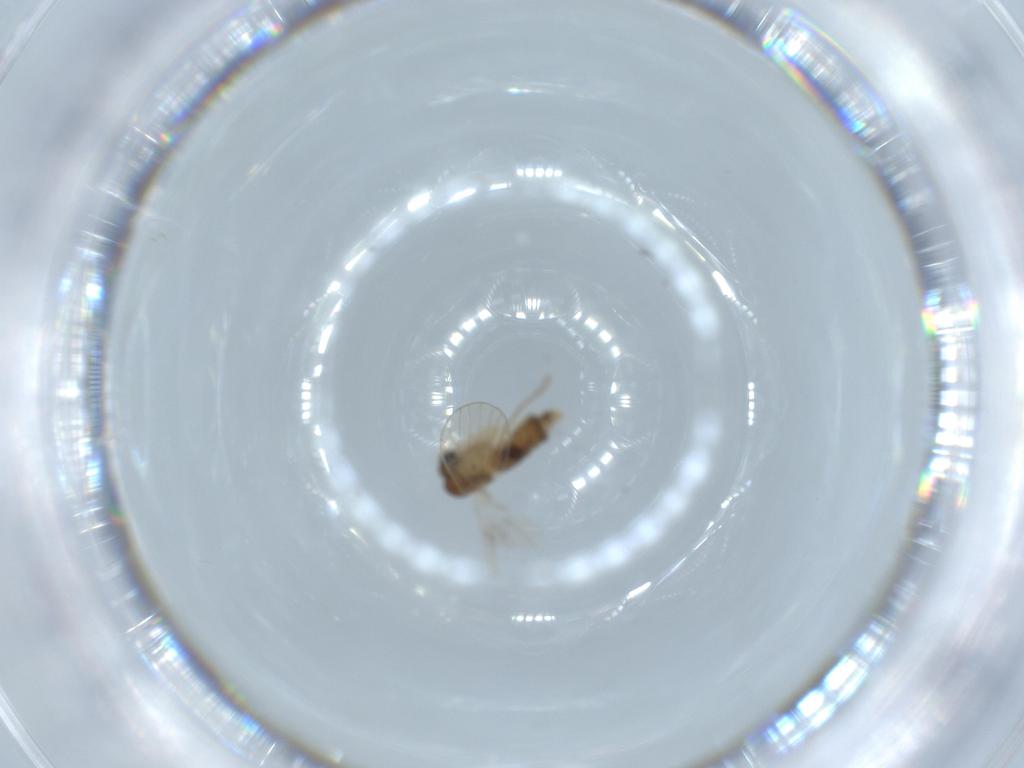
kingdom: Animalia
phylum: Arthropoda
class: Insecta
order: Diptera
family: Psychodidae
